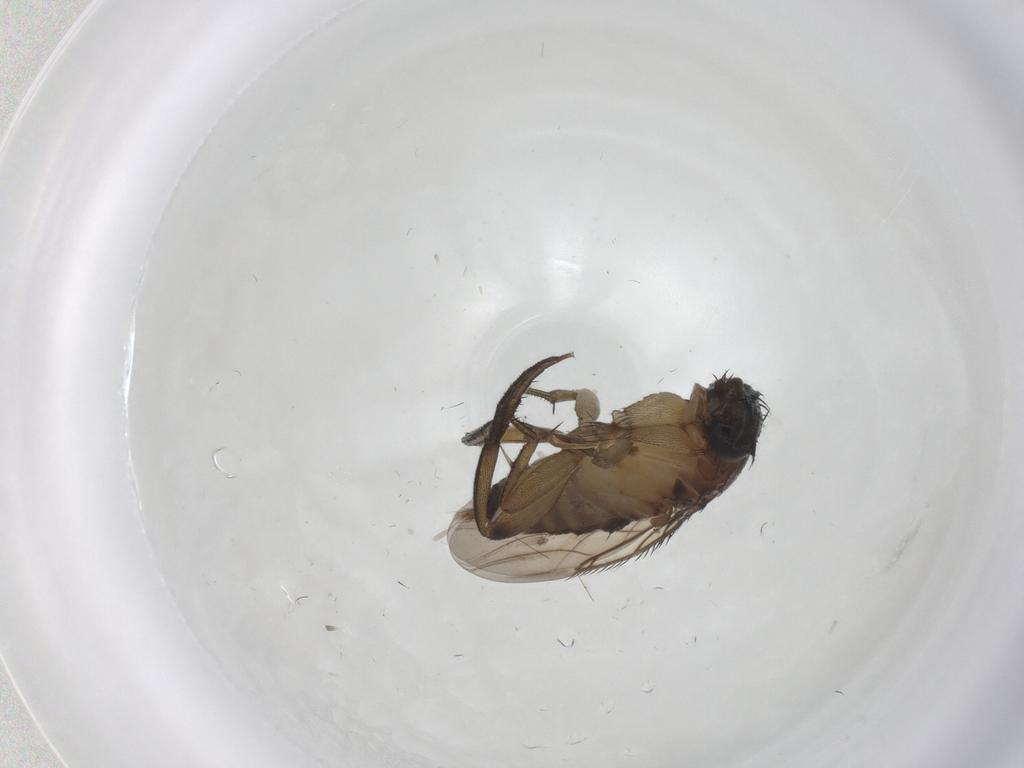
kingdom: Animalia
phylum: Arthropoda
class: Insecta
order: Diptera
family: Phoridae
